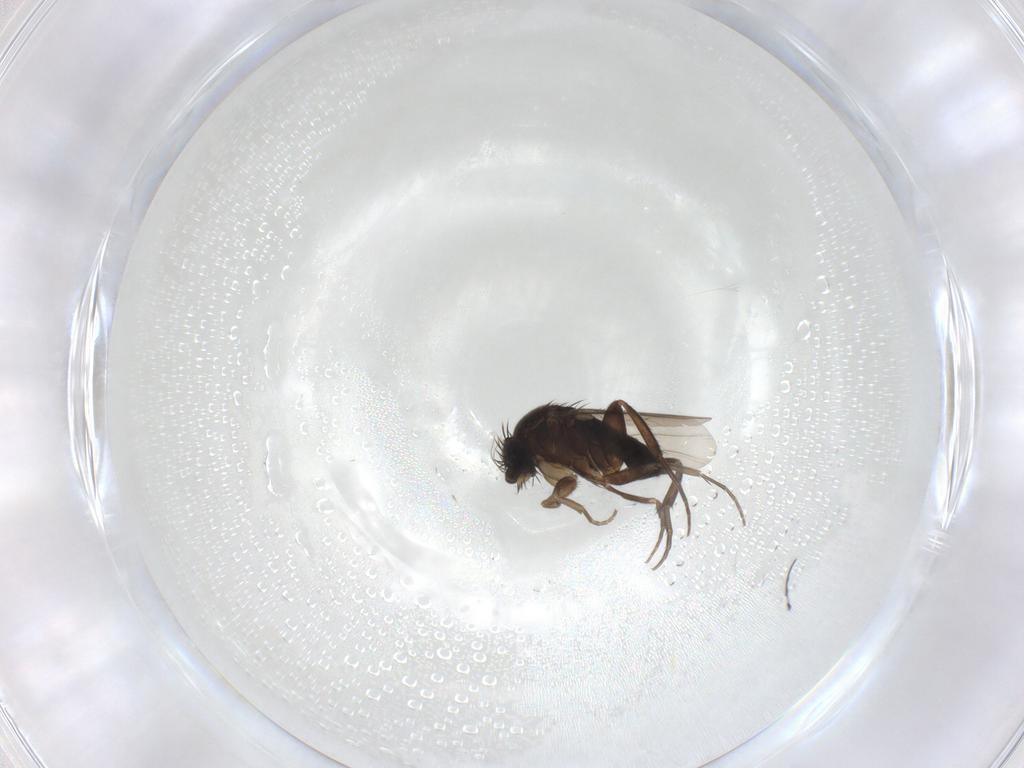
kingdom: Animalia
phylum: Arthropoda
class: Insecta
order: Diptera
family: Phoridae
